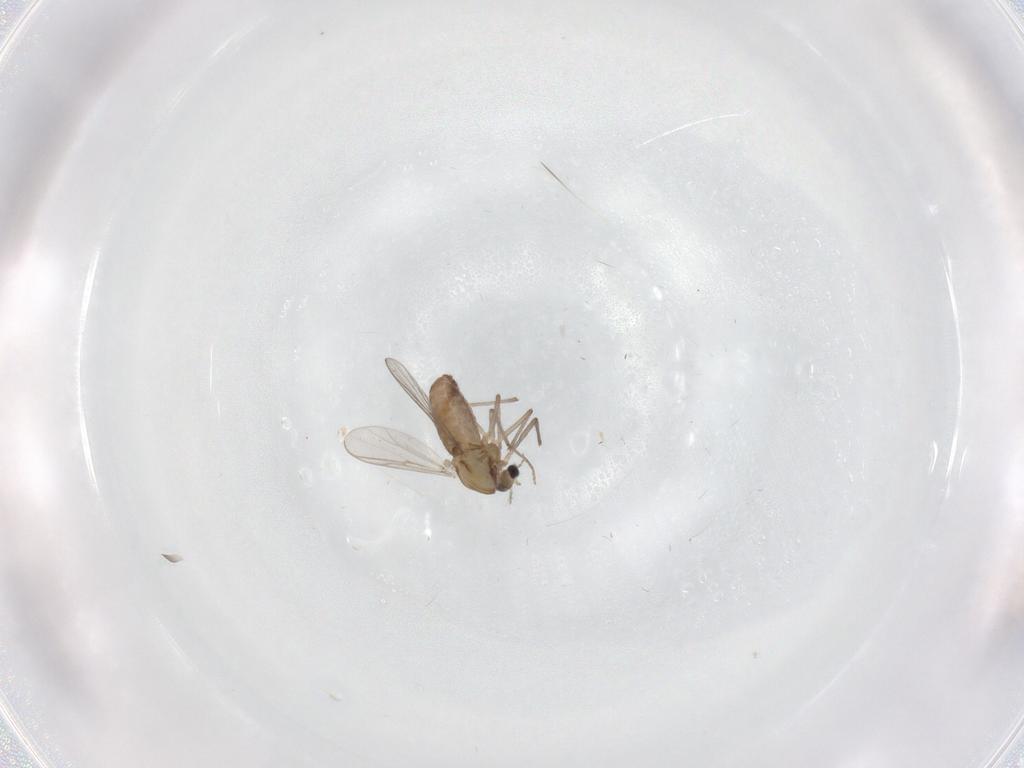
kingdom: Animalia
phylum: Arthropoda
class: Insecta
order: Diptera
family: Chironomidae
